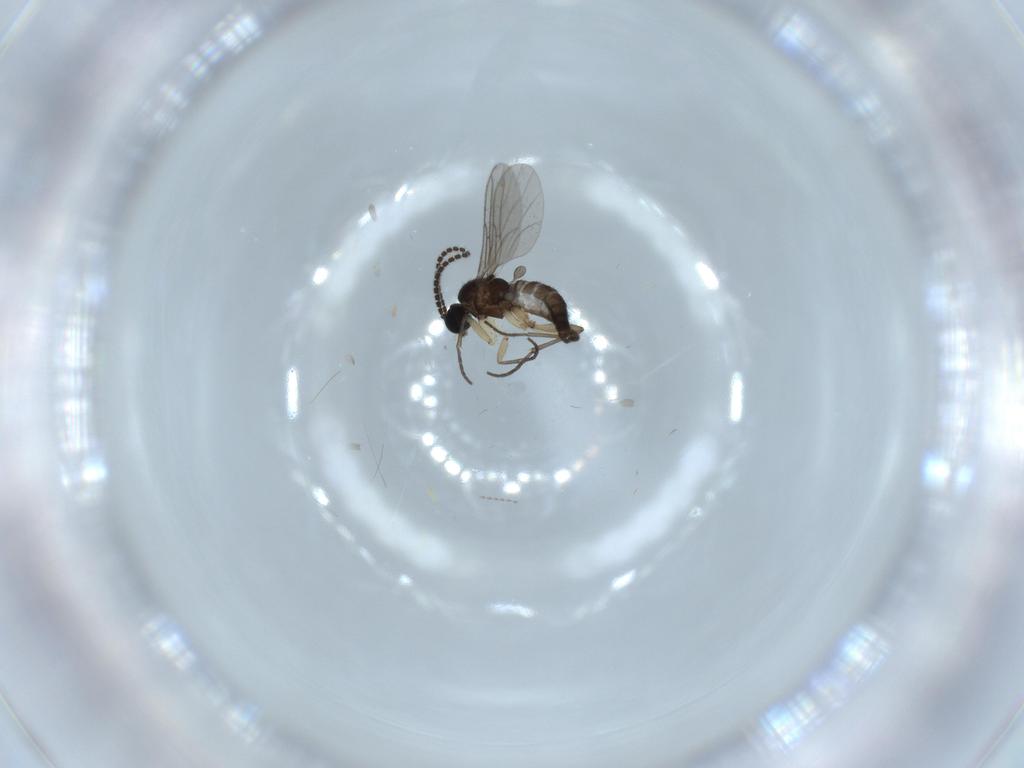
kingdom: Animalia
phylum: Arthropoda
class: Insecta
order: Diptera
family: Sciaridae
